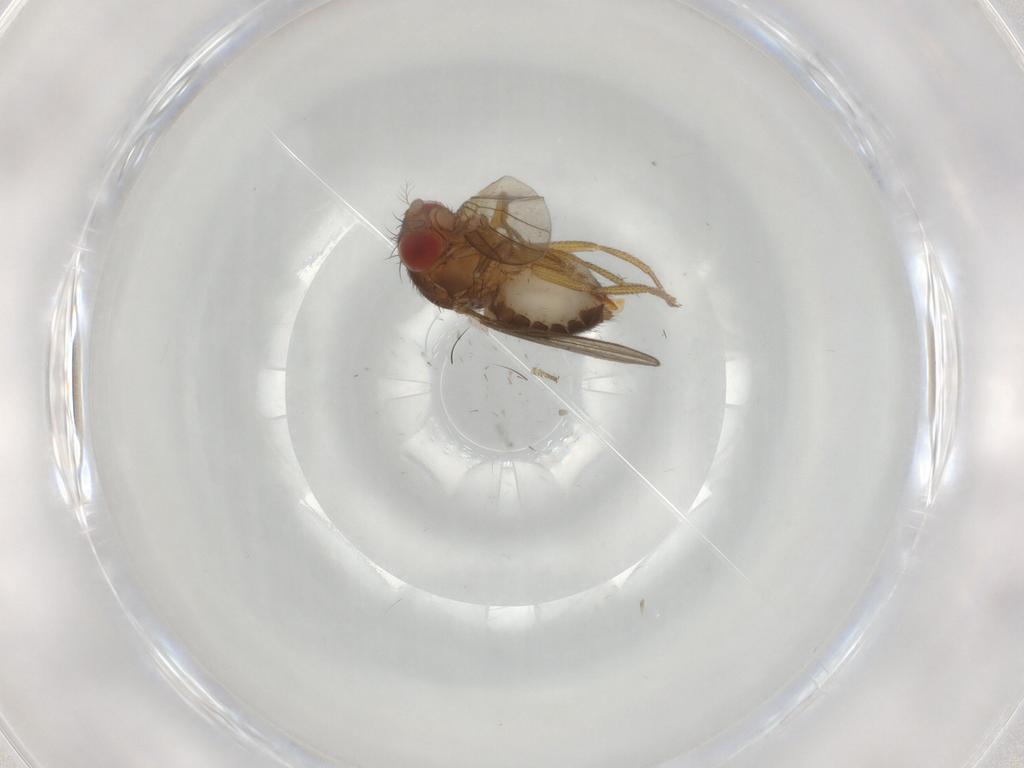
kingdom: Animalia
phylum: Arthropoda
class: Insecta
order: Diptera
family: Drosophilidae
